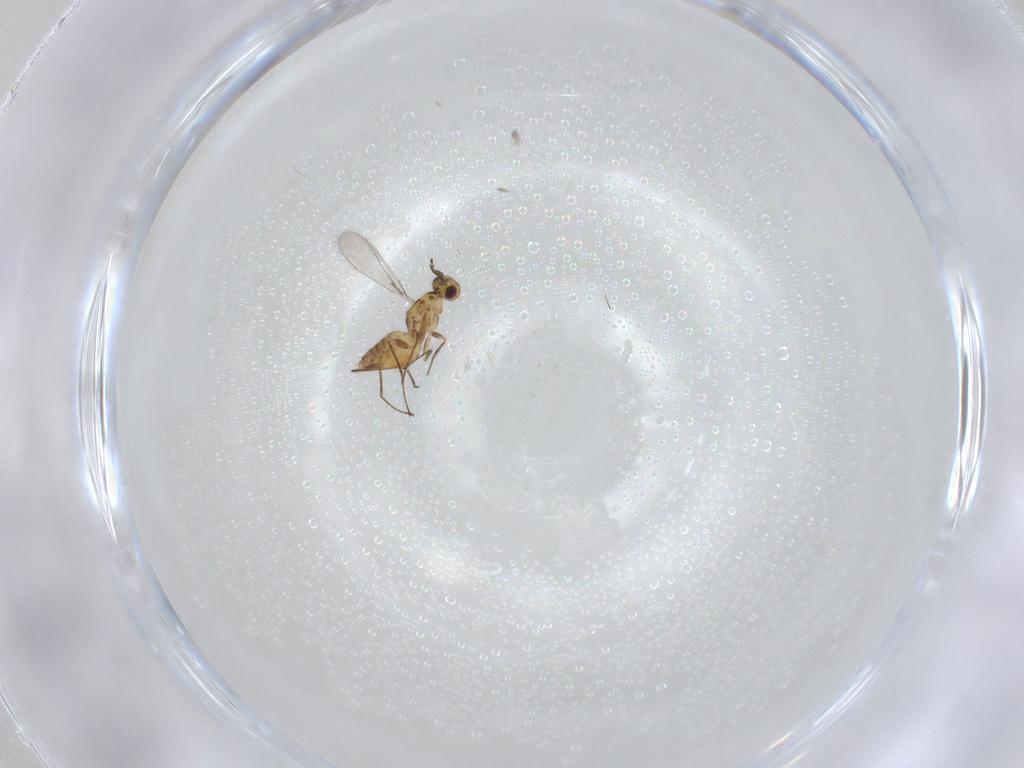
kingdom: Animalia
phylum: Arthropoda
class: Insecta
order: Hymenoptera
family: Mymaridae
